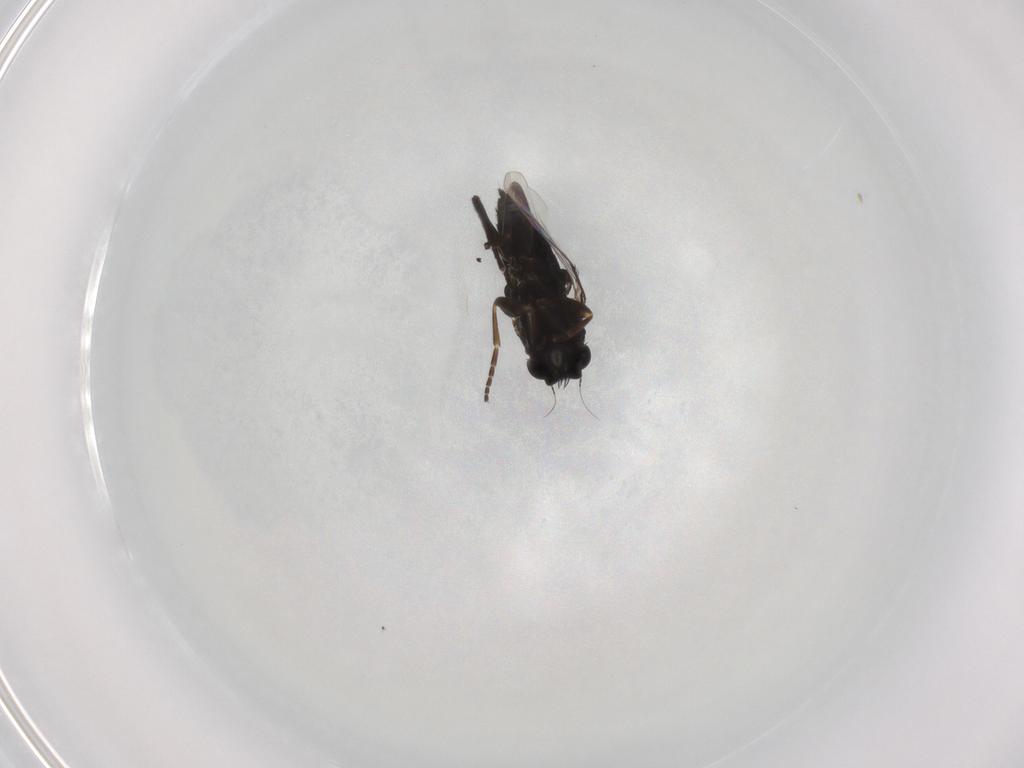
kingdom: Animalia
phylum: Arthropoda
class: Insecta
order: Diptera
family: Phoridae
